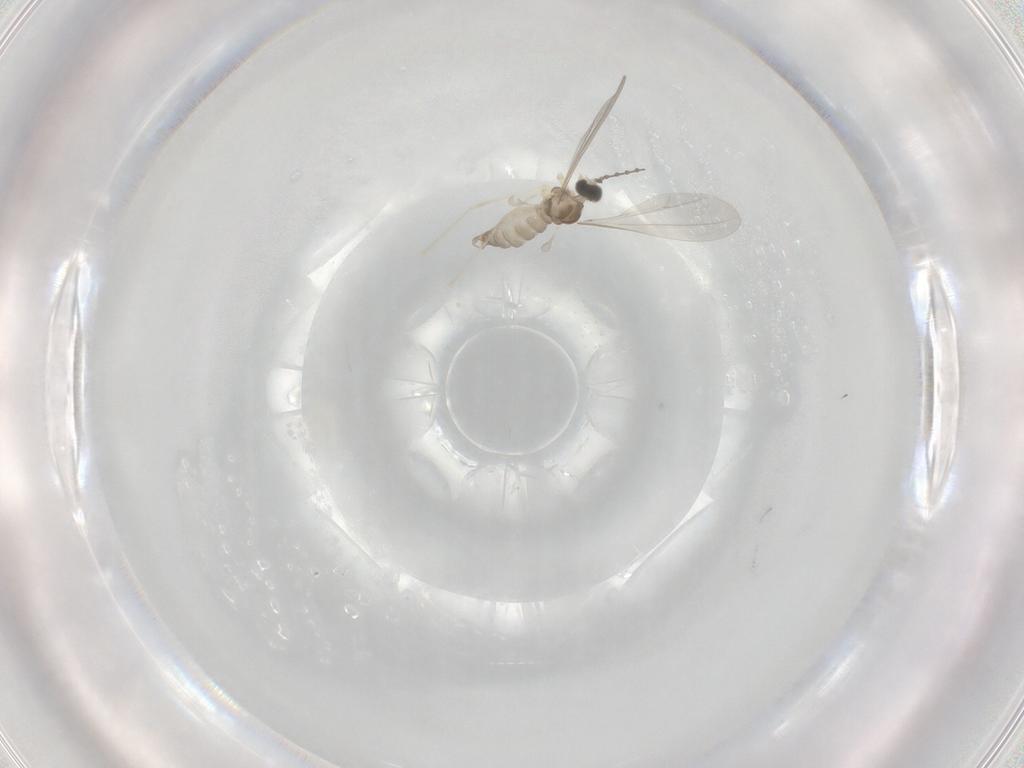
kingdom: Animalia
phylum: Arthropoda
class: Insecta
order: Diptera
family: Cecidomyiidae
